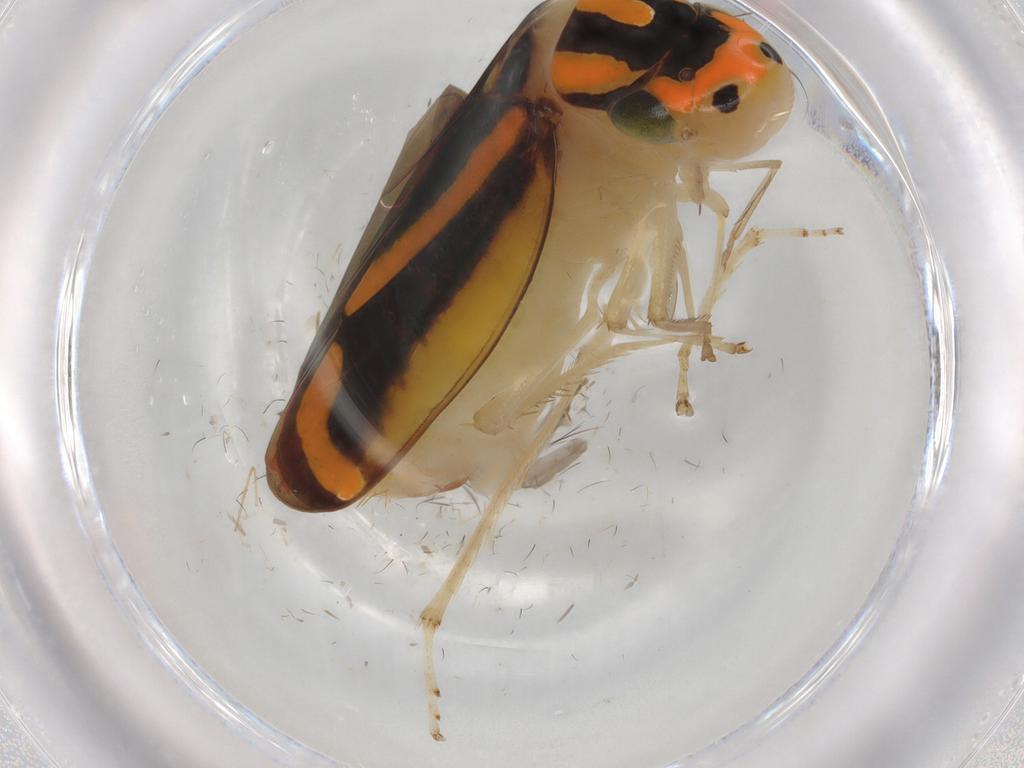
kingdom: Animalia
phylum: Arthropoda
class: Insecta
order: Hemiptera
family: Cicadellidae
